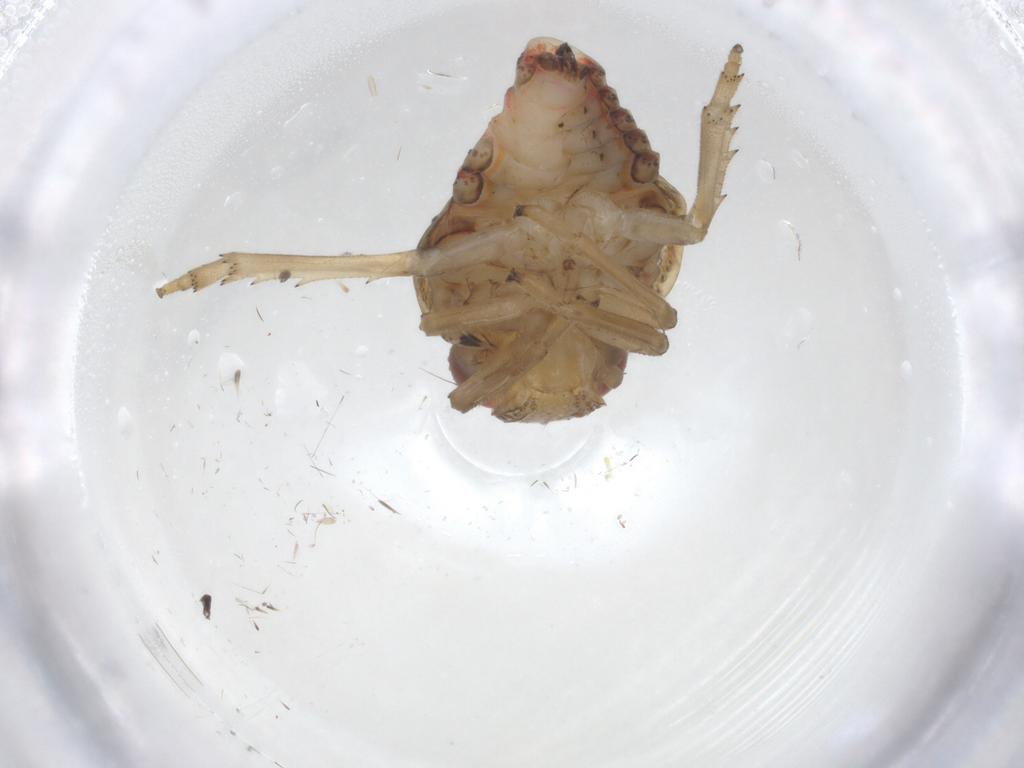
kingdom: Animalia
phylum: Arthropoda
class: Insecta
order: Hemiptera
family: Issidae
